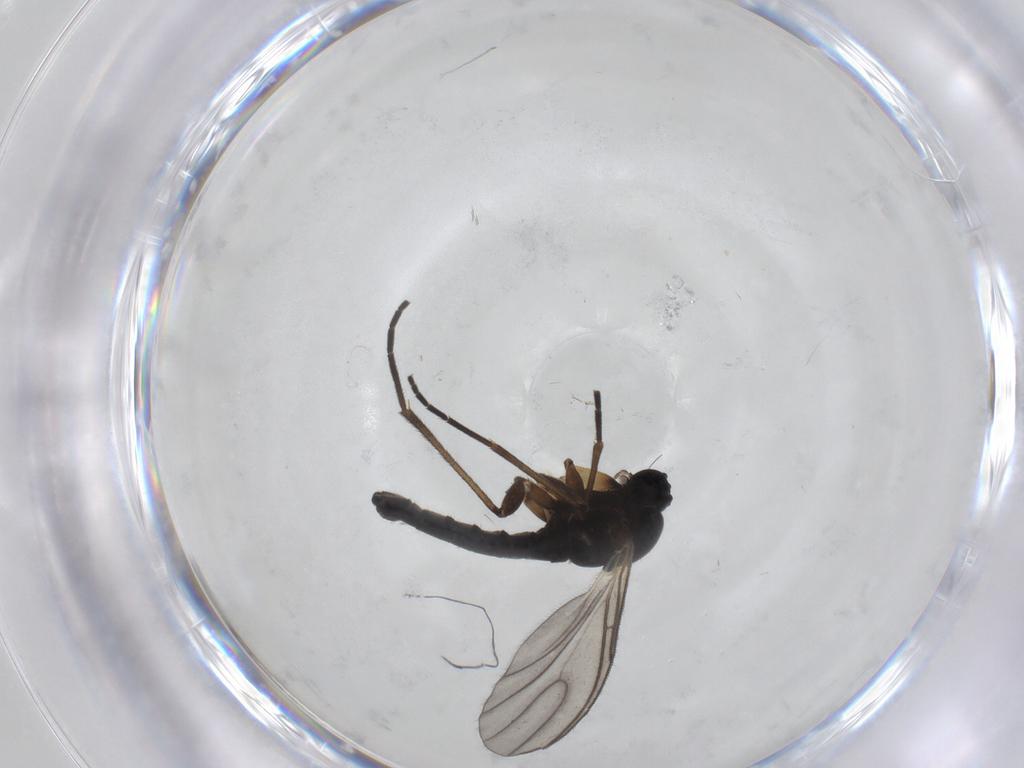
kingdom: Animalia
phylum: Arthropoda
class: Insecta
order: Diptera
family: Sciaridae
